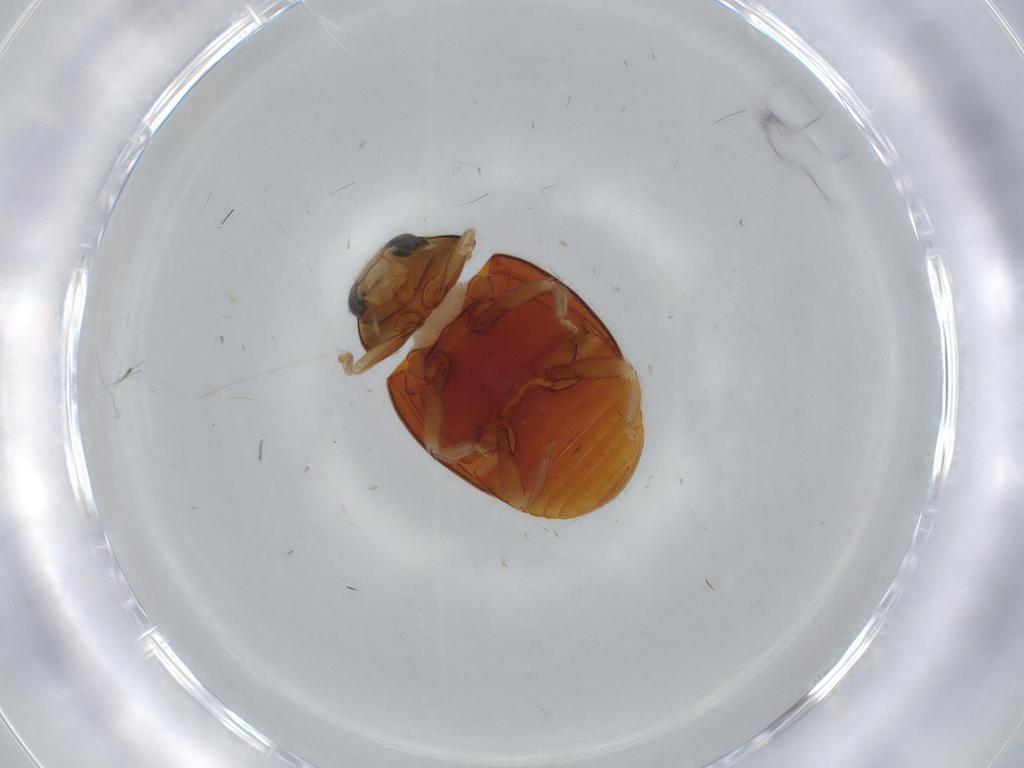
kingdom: Animalia
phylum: Arthropoda
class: Insecta
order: Coleoptera
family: Coccinellidae
